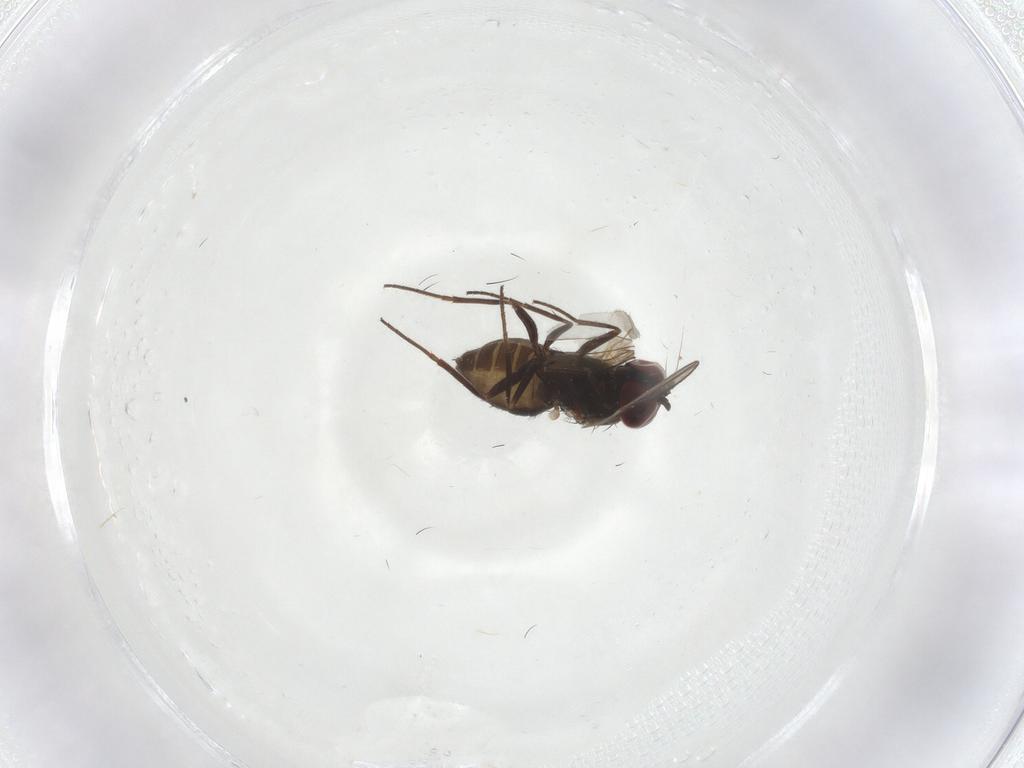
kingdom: Animalia
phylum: Arthropoda
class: Insecta
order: Diptera
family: Dolichopodidae
